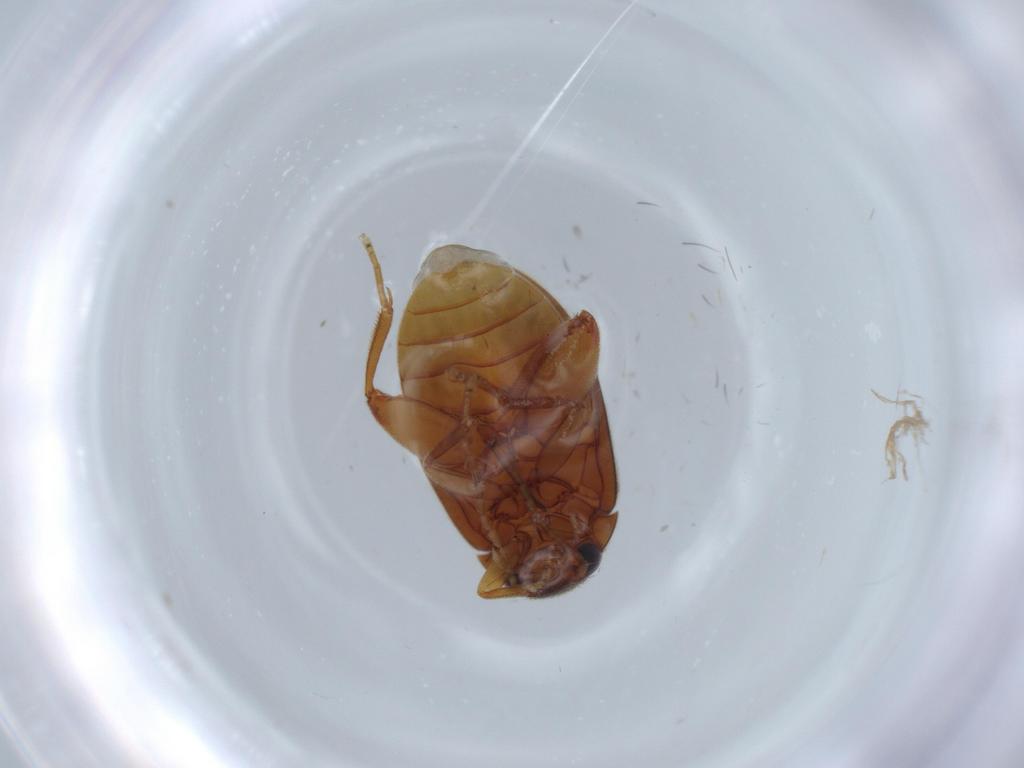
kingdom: Animalia
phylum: Arthropoda
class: Insecta
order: Coleoptera
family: Scirtidae
